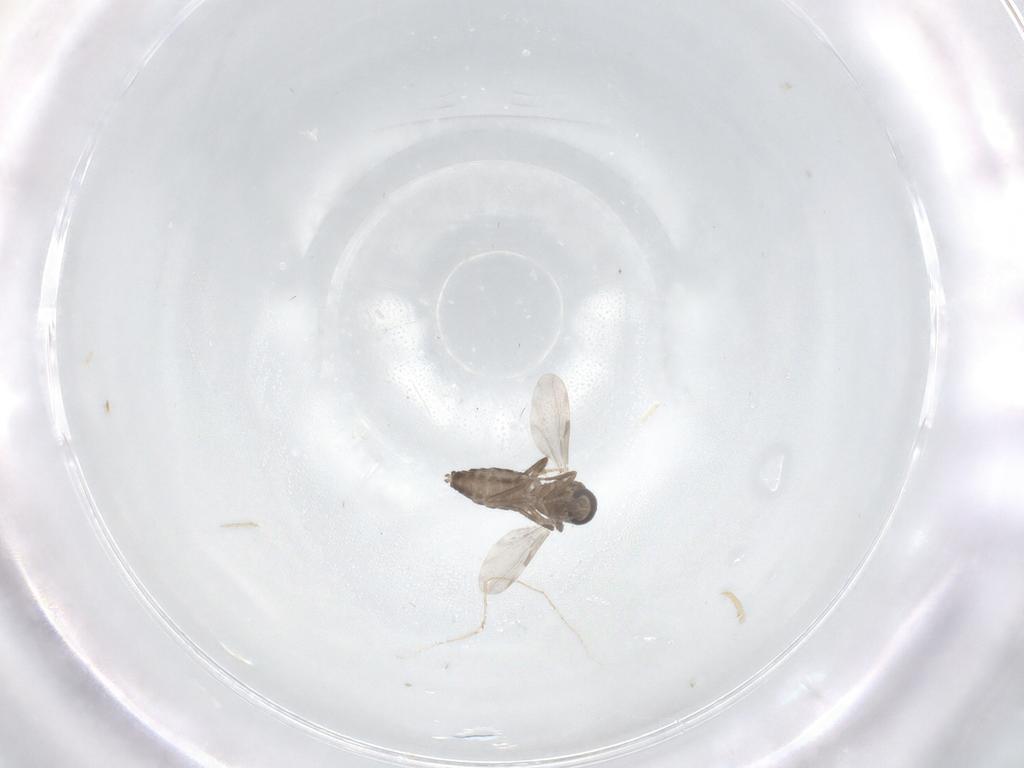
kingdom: Animalia
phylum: Arthropoda
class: Insecta
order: Diptera
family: Ceratopogonidae
